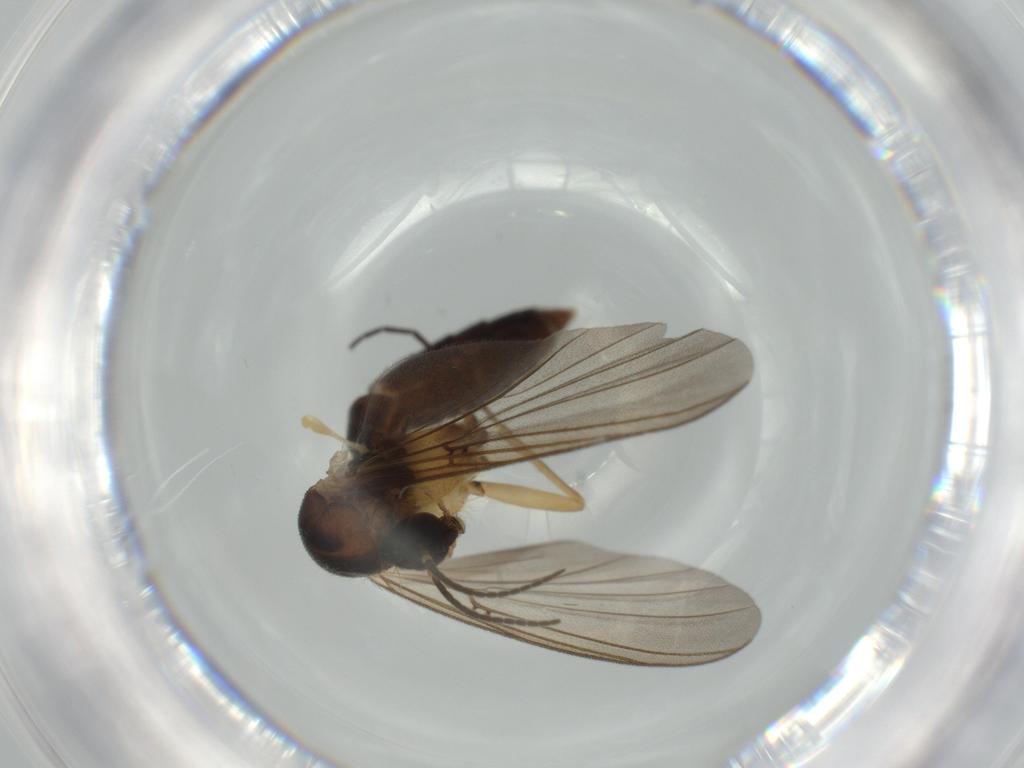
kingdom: Animalia
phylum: Arthropoda
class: Insecta
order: Diptera
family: Scatopsidae
